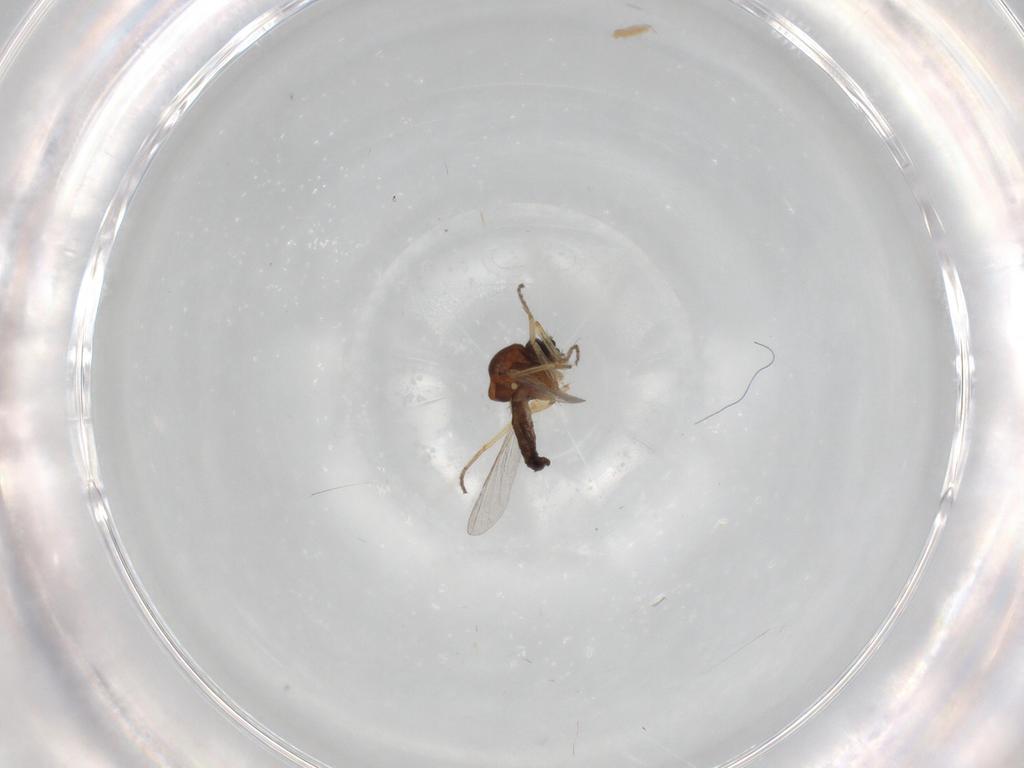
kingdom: Animalia
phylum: Arthropoda
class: Insecta
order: Diptera
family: Ceratopogonidae
